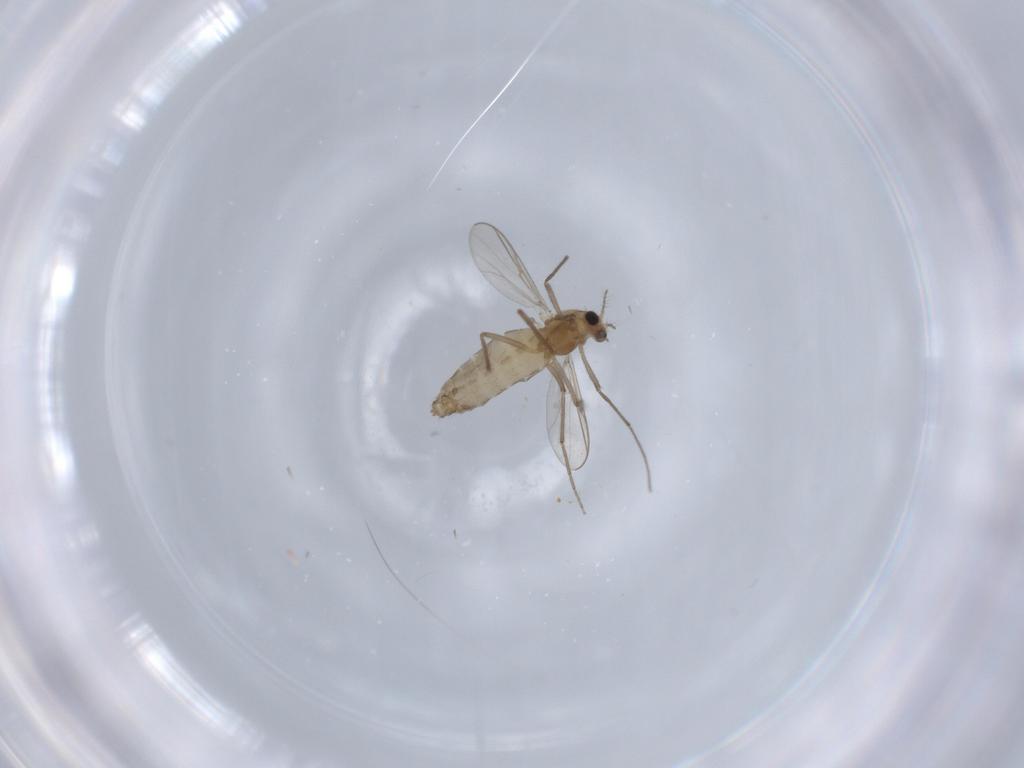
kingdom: Animalia
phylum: Arthropoda
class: Insecta
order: Diptera
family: Chironomidae
